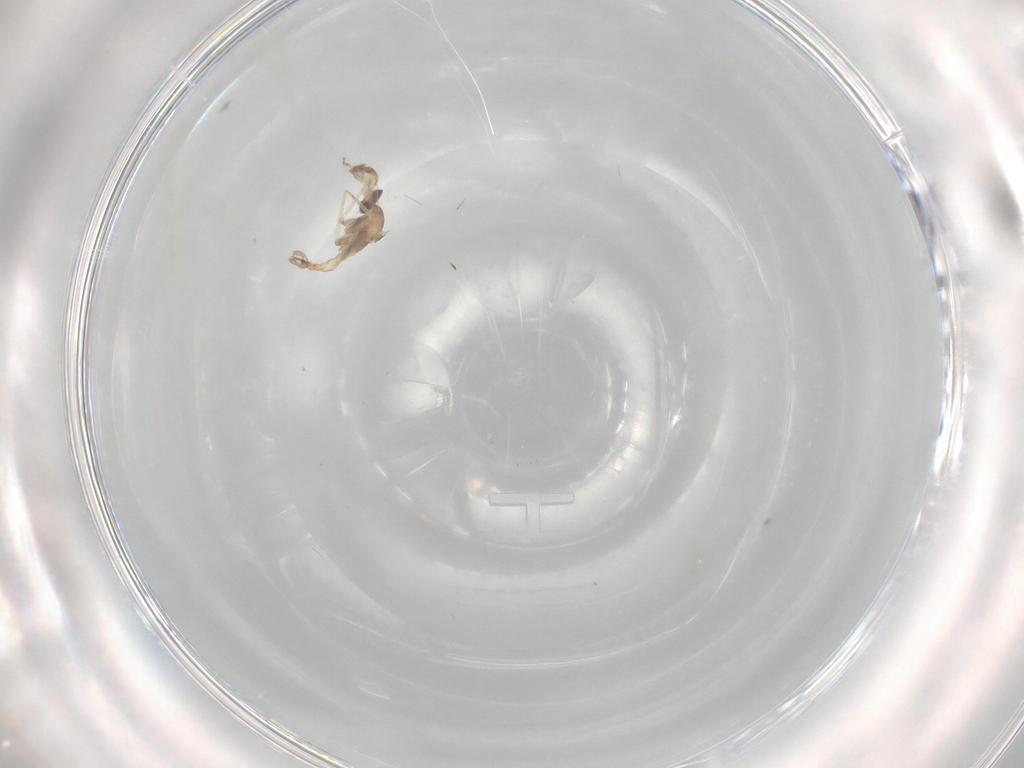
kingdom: Animalia
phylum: Arthropoda
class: Insecta
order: Diptera
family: Cecidomyiidae
